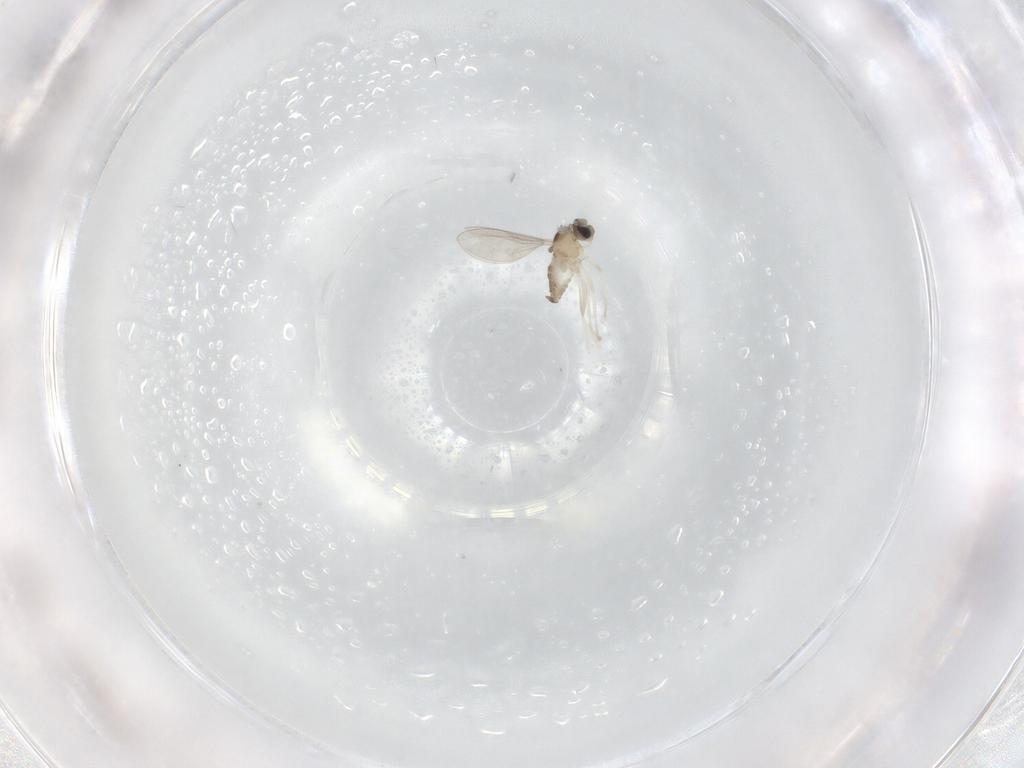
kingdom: Animalia
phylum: Arthropoda
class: Insecta
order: Diptera
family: Cecidomyiidae
